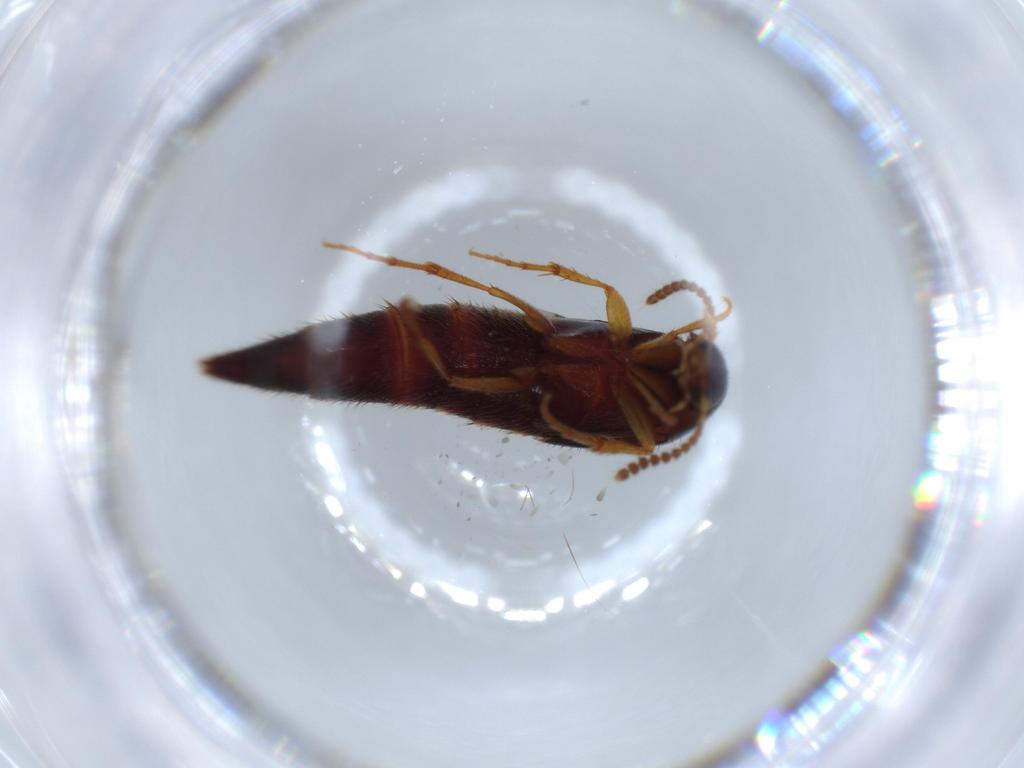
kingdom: Animalia
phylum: Arthropoda
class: Insecta
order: Coleoptera
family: Staphylinidae
